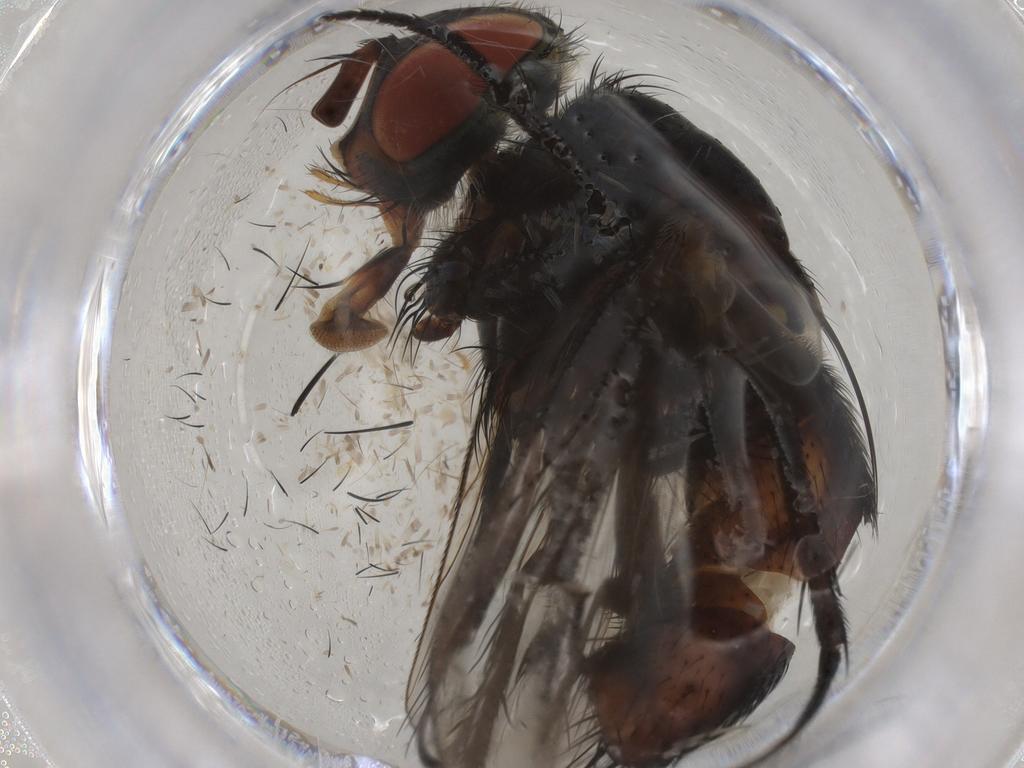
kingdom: Animalia
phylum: Arthropoda
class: Insecta
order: Diptera
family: Tachinidae
